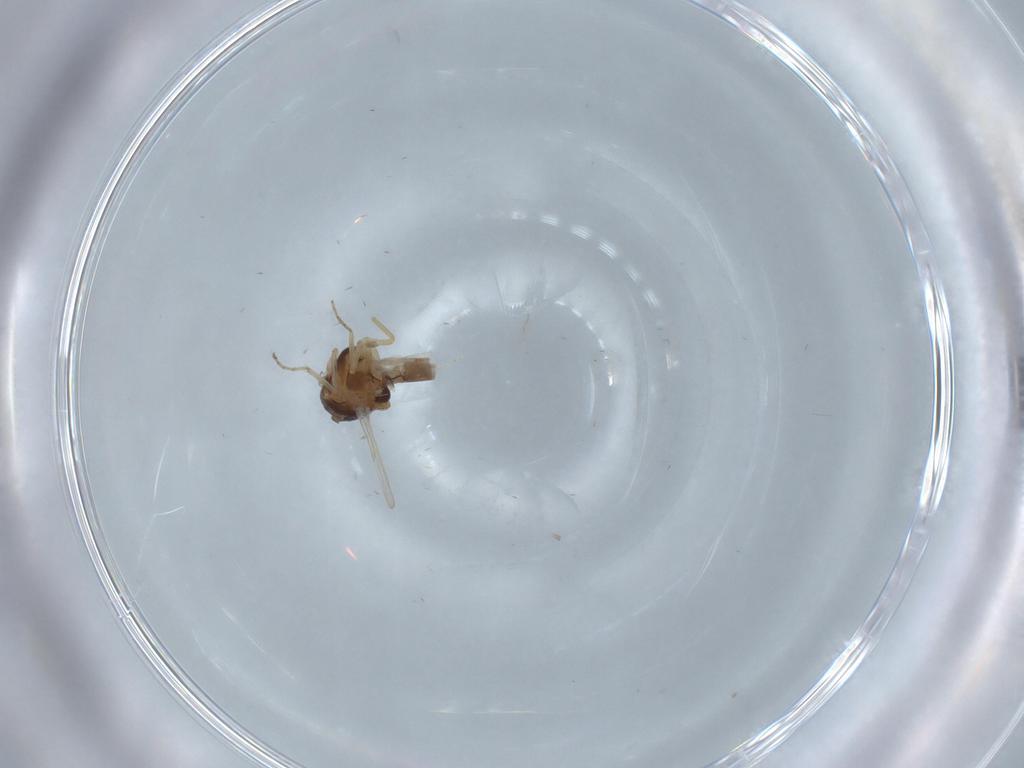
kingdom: Animalia
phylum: Arthropoda
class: Insecta
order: Diptera
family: Ceratopogonidae
